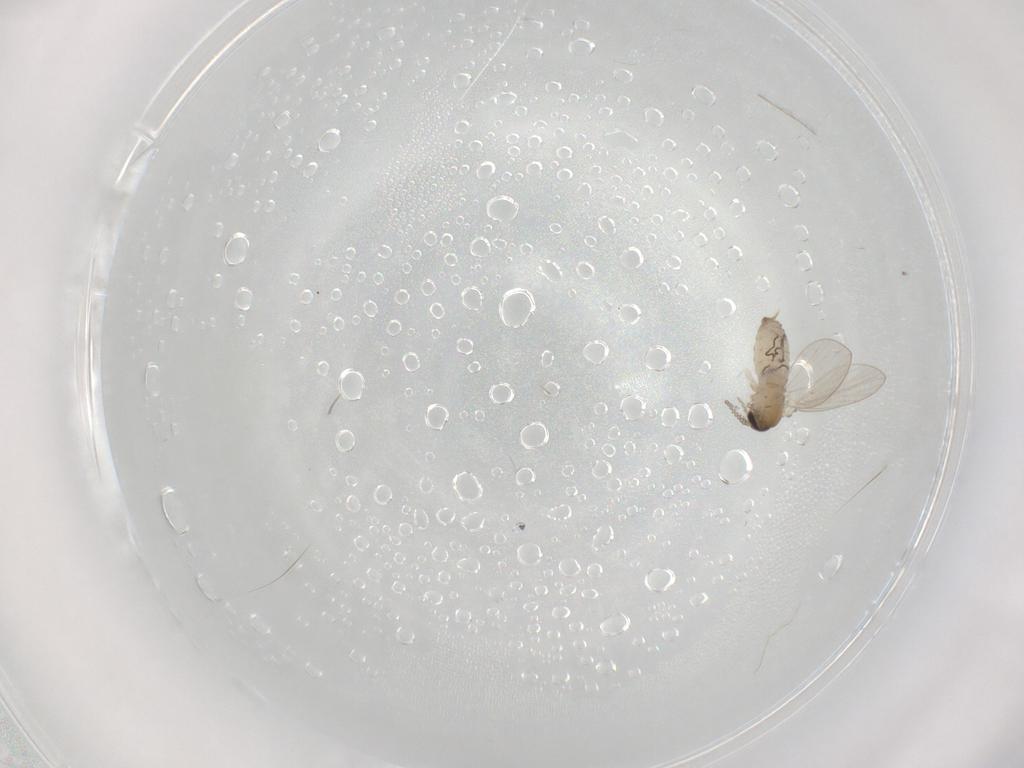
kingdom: Animalia
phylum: Arthropoda
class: Insecta
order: Diptera
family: Psychodidae
